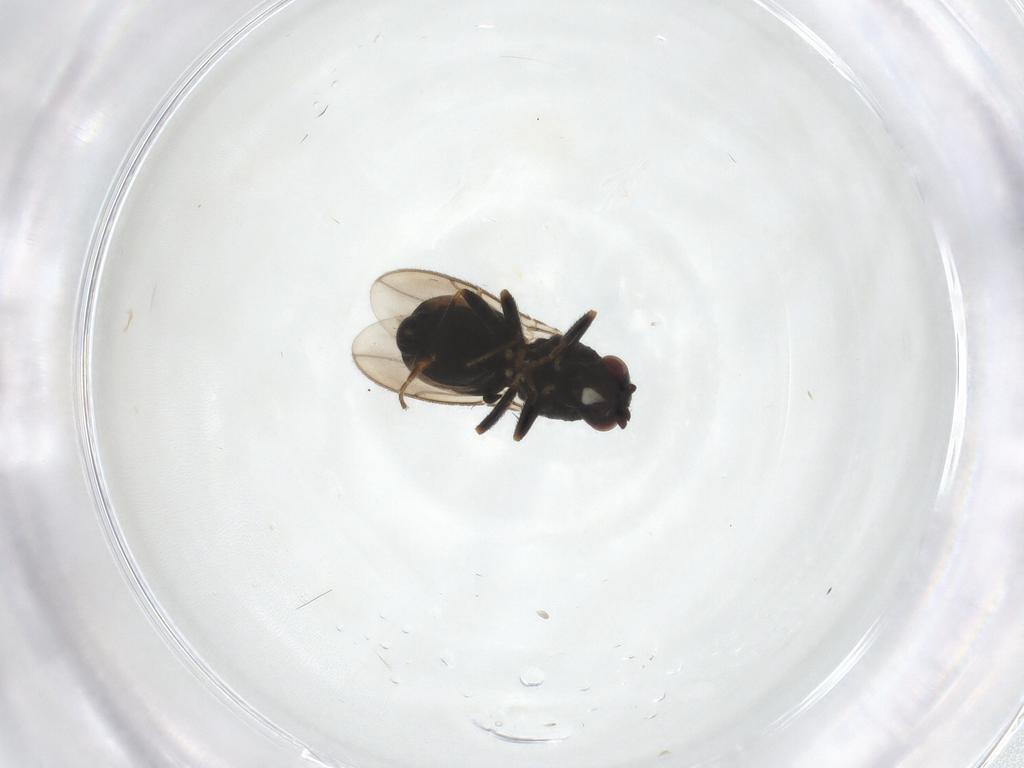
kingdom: Animalia
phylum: Arthropoda
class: Insecta
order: Diptera
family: Sphaeroceridae
